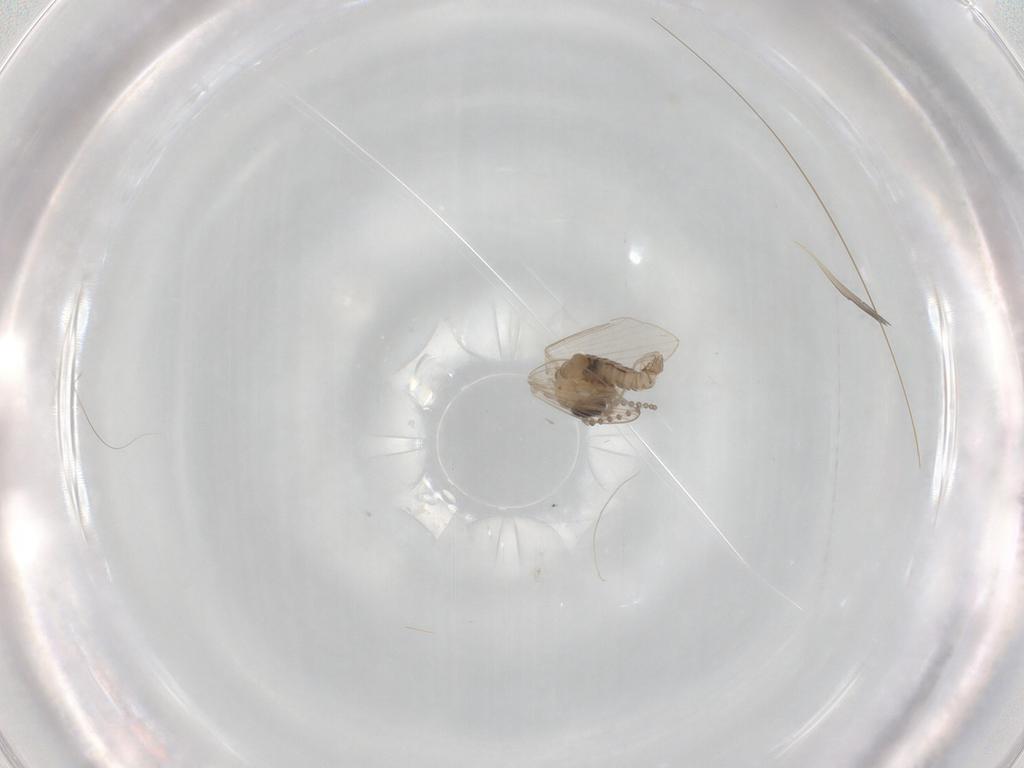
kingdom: Animalia
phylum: Arthropoda
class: Insecta
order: Diptera
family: Psychodidae
